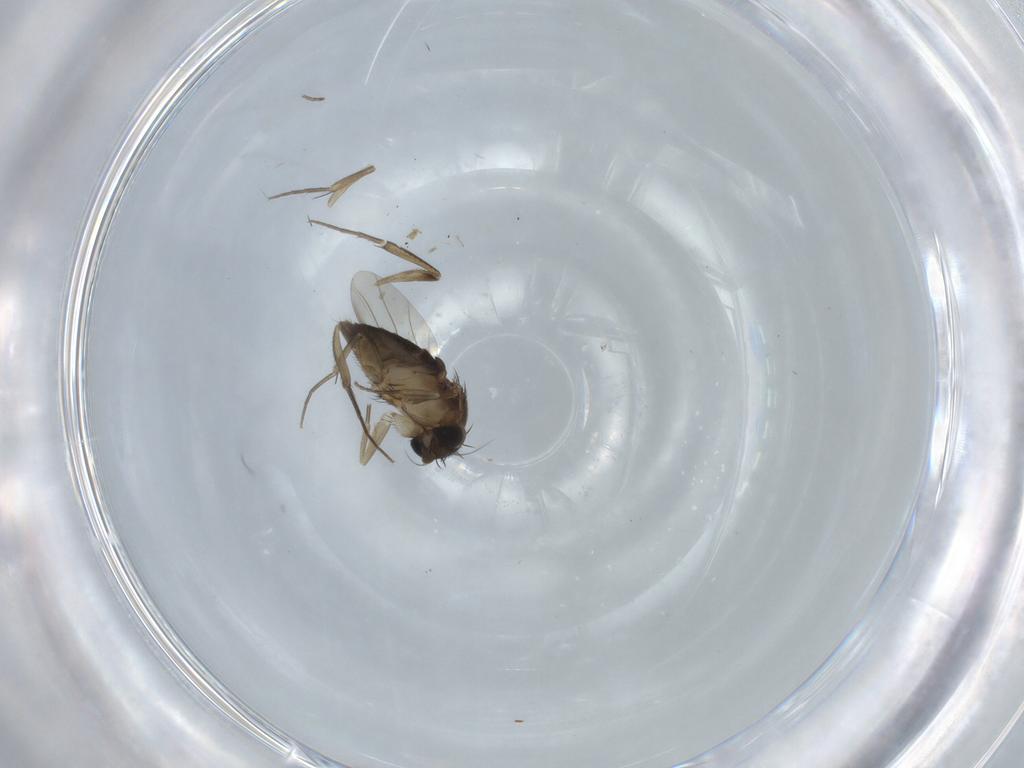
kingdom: Animalia
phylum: Arthropoda
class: Insecta
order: Diptera
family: Phoridae
